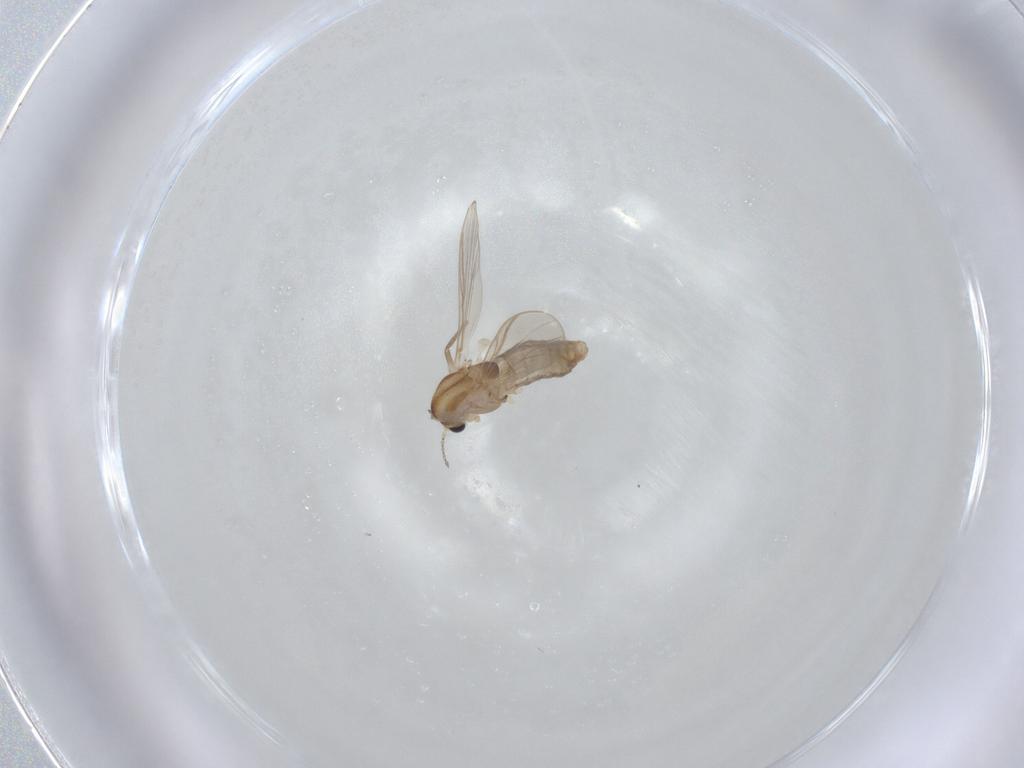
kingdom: Animalia
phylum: Arthropoda
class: Insecta
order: Diptera
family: Chironomidae
